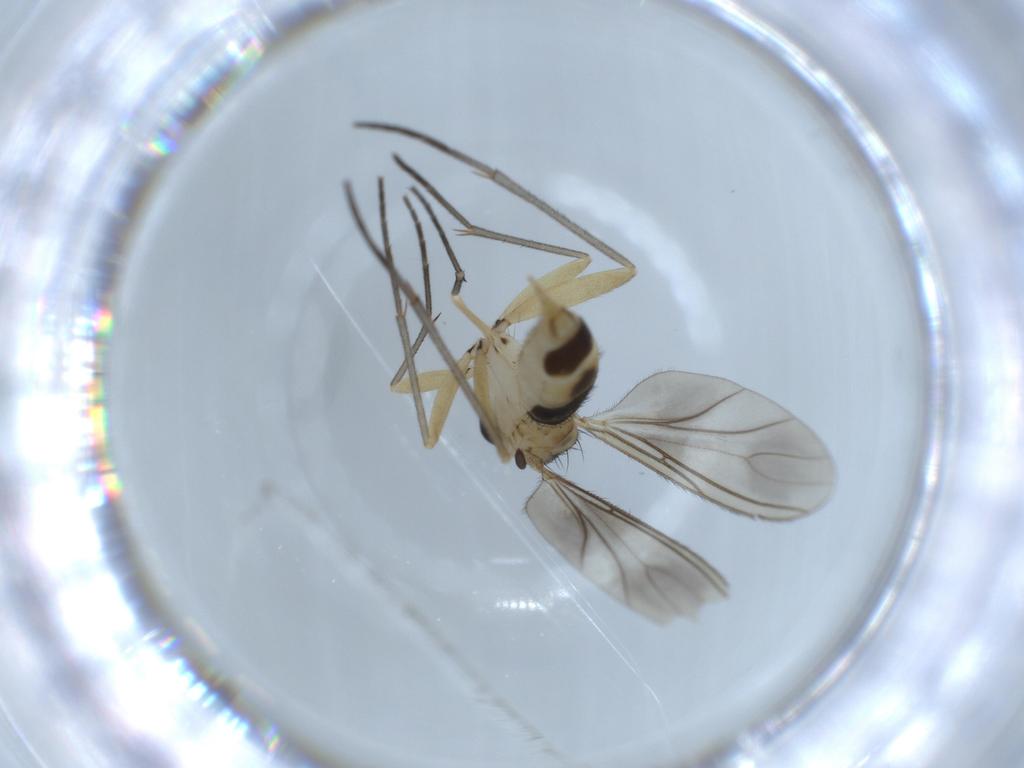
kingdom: Animalia
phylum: Arthropoda
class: Insecta
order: Diptera
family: Sciaridae
